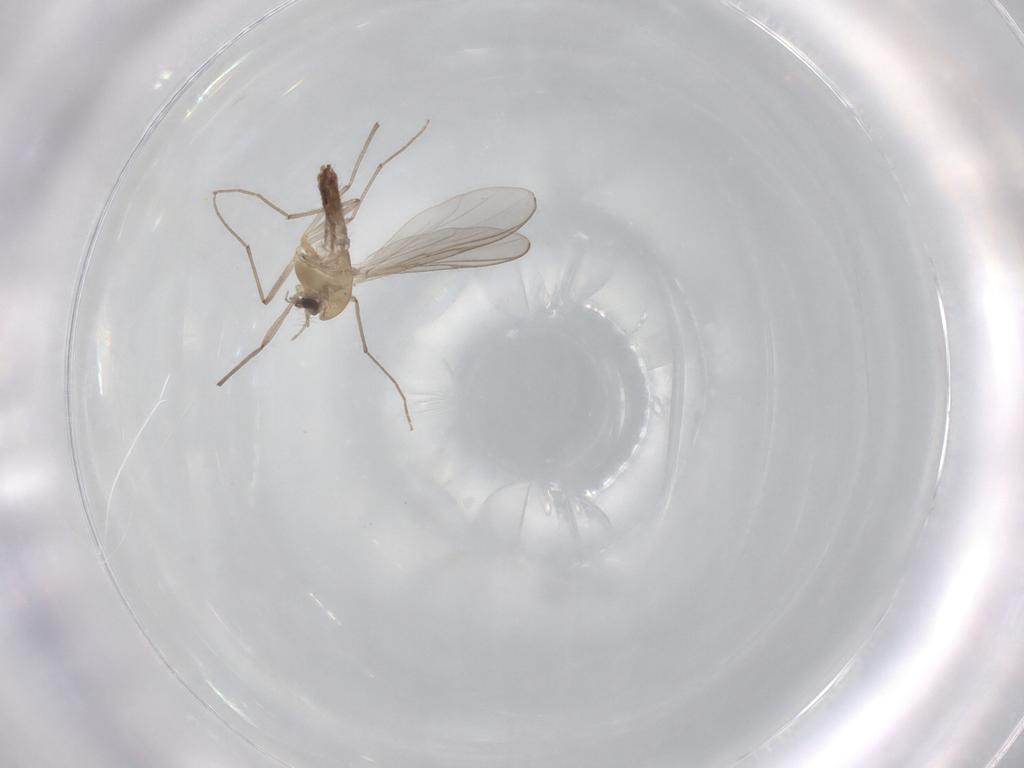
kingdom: Animalia
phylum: Arthropoda
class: Insecta
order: Diptera
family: Chironomidae
